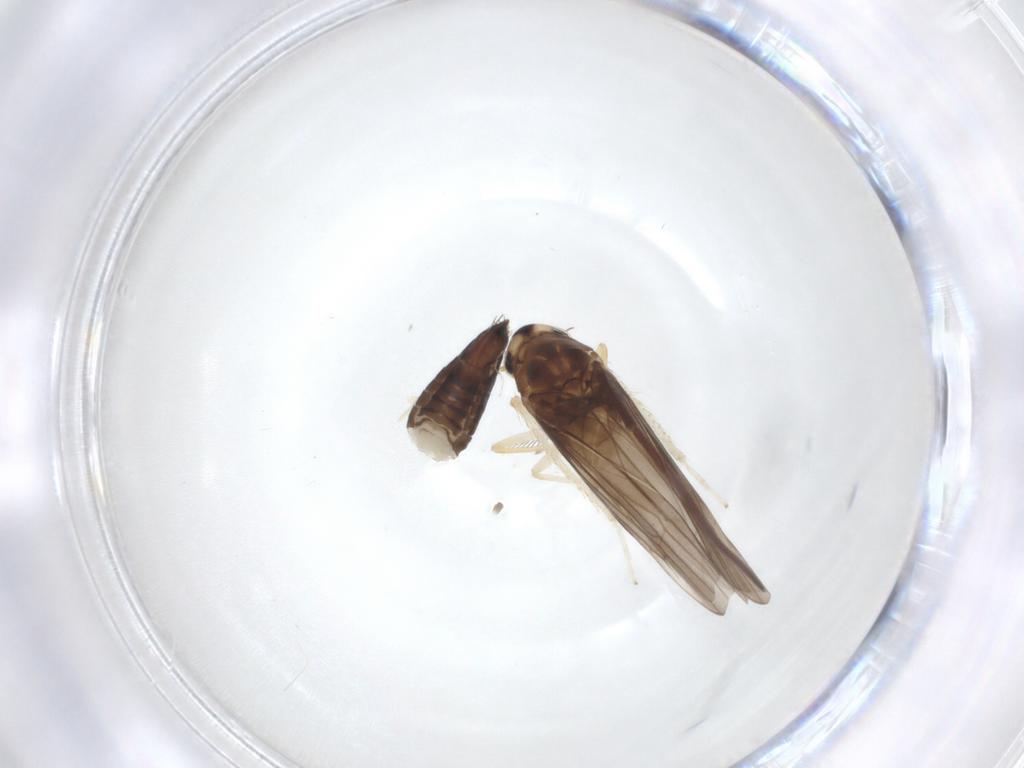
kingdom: Animalia
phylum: Arthropoda
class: Insecta
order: Hemiptera
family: Cicadellidae
